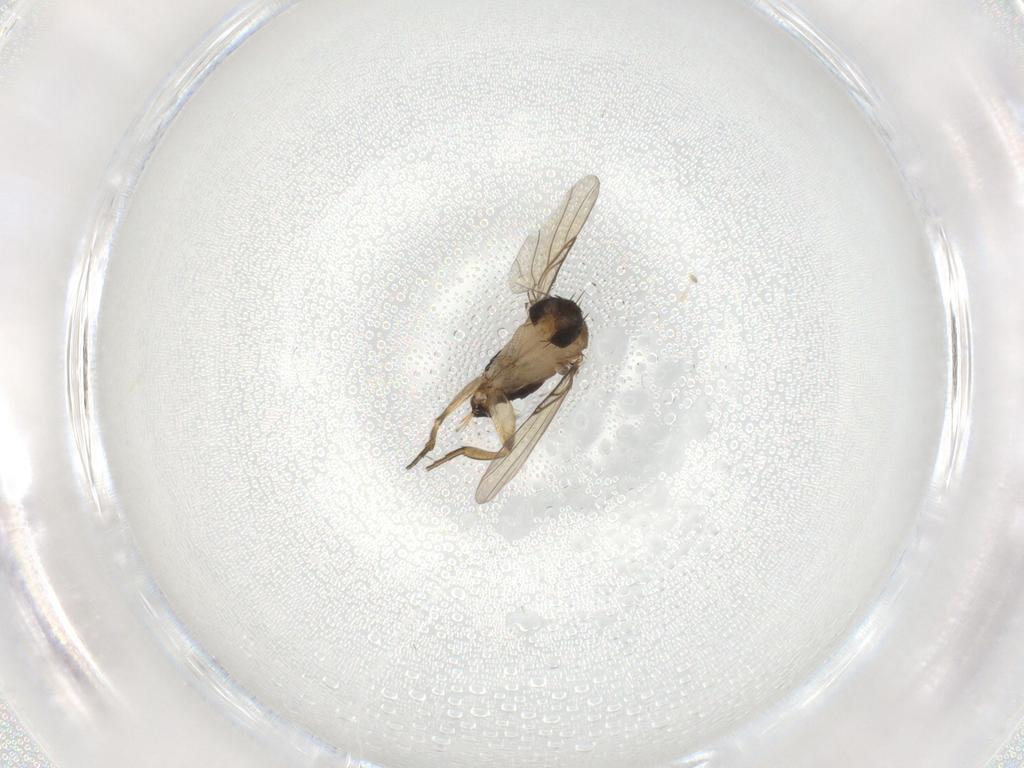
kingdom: Animalia
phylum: Arthropoda
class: Insecta
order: Diptera
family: Phoridae
